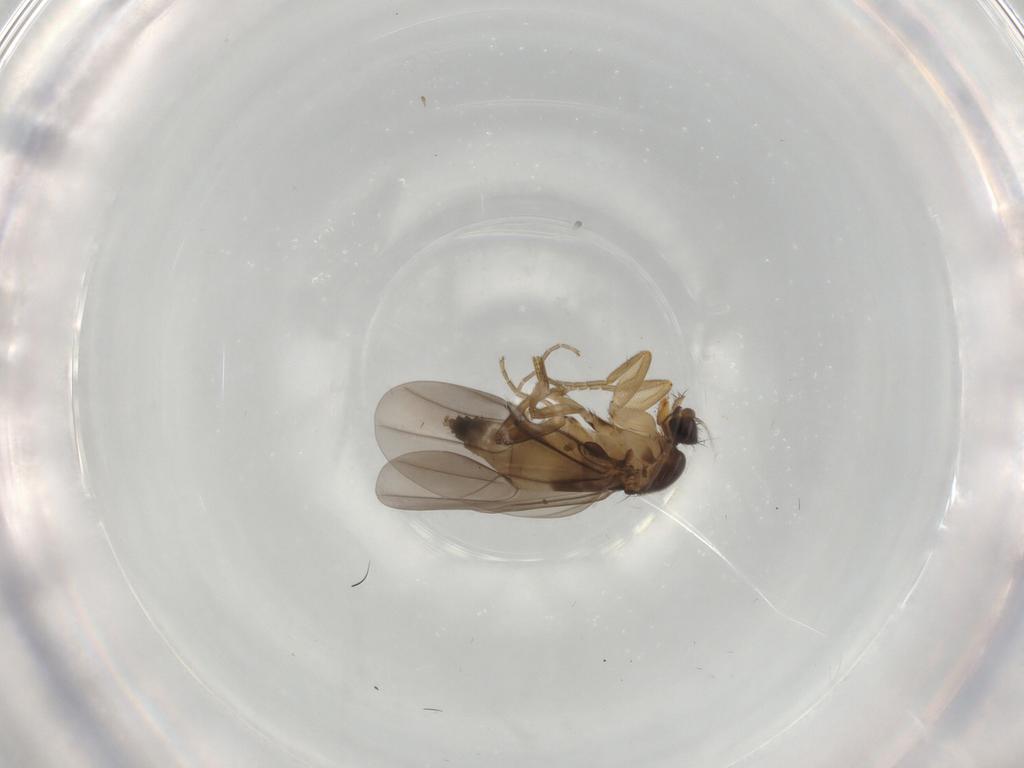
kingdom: Animalia
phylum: Arthropoda
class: Insecta
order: Diptera
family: Phoridae
